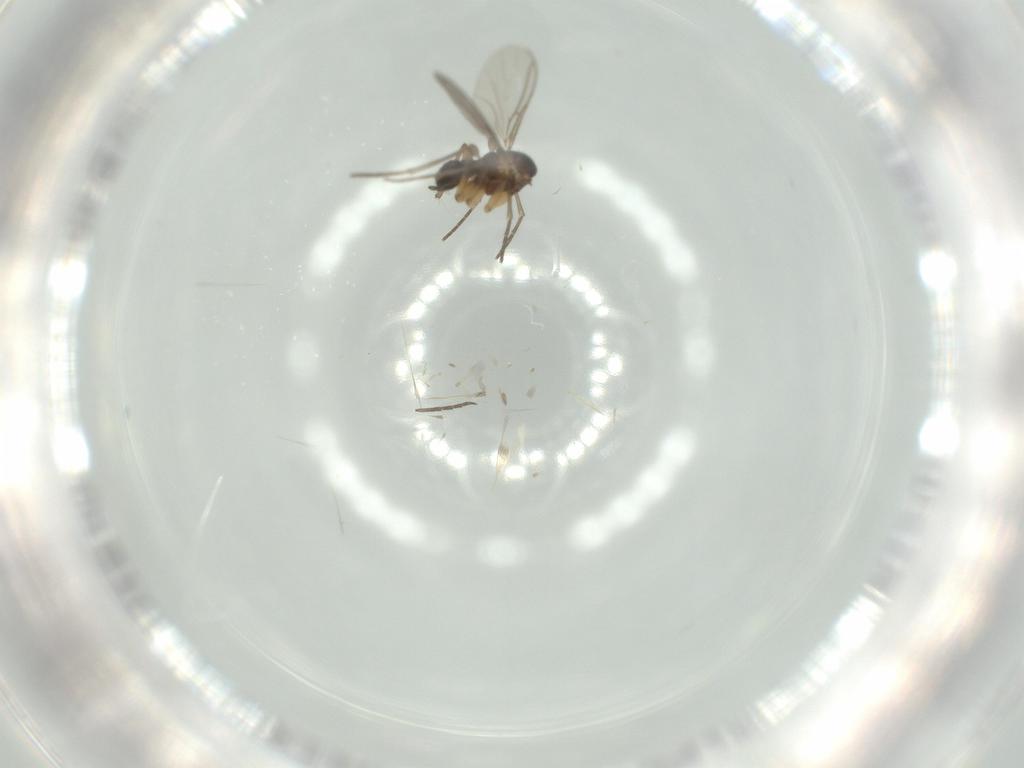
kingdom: Animalia
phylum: Arthropoda
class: Insecta
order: Diptera
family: Sciaridae
